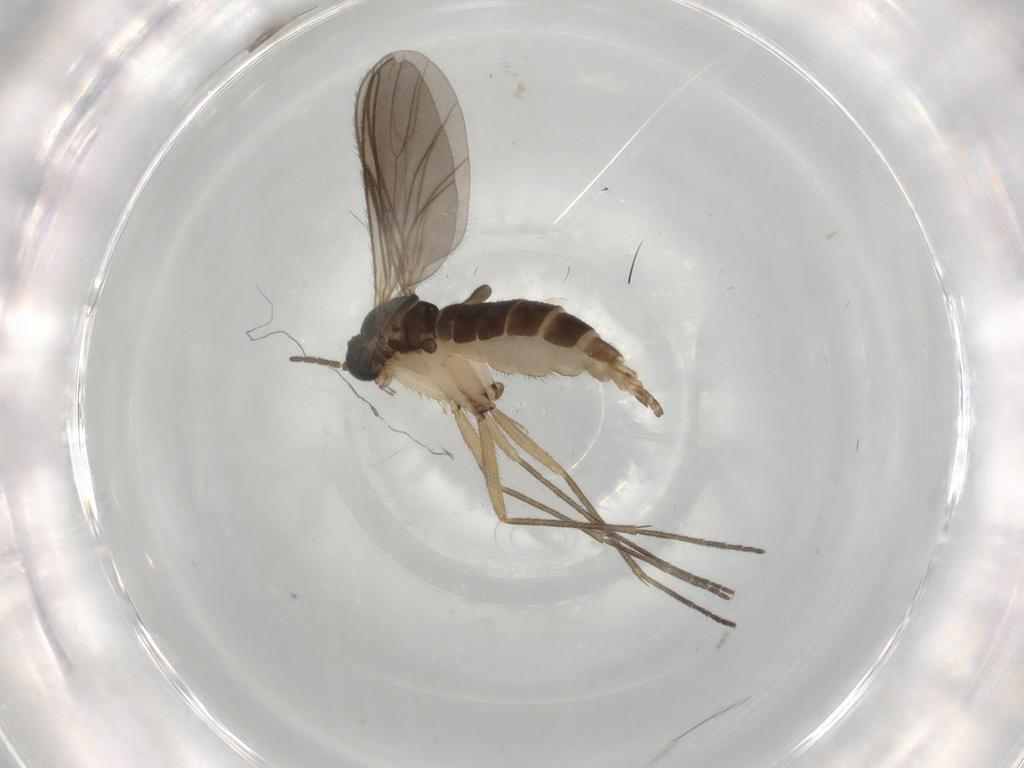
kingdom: Animalia
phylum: Arthropoda
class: Insecta
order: Diptera
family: Sciaridae
